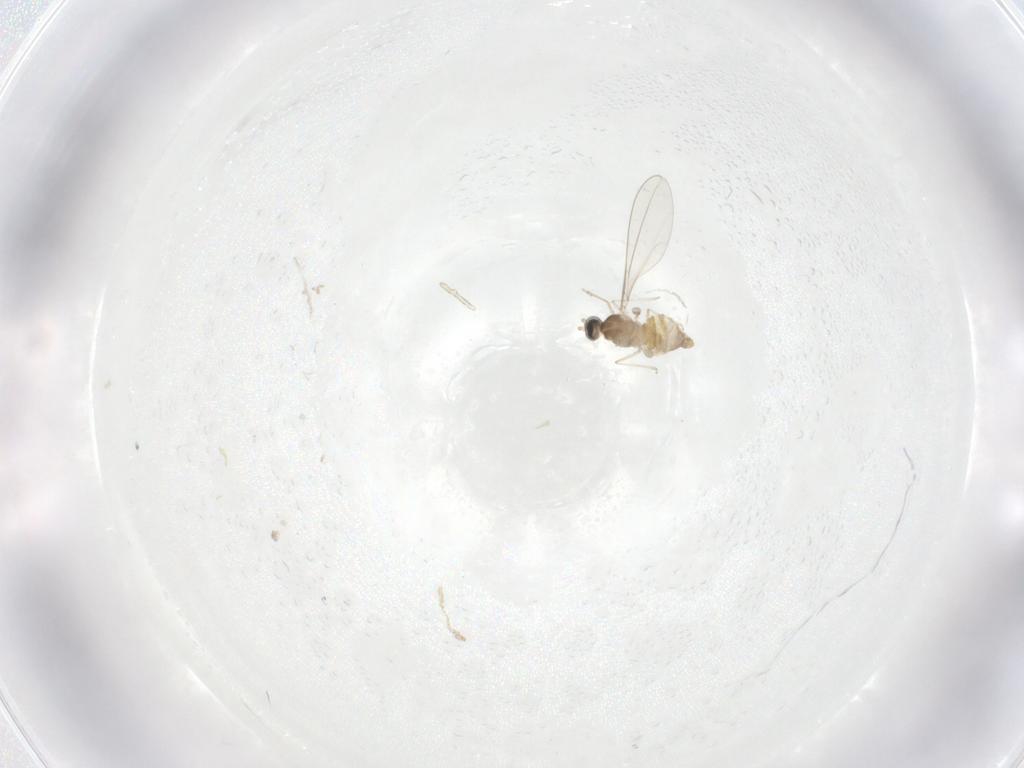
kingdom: Animalia
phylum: Arthropoda
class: Insecta
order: Diptera
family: Cecidomyiidae
